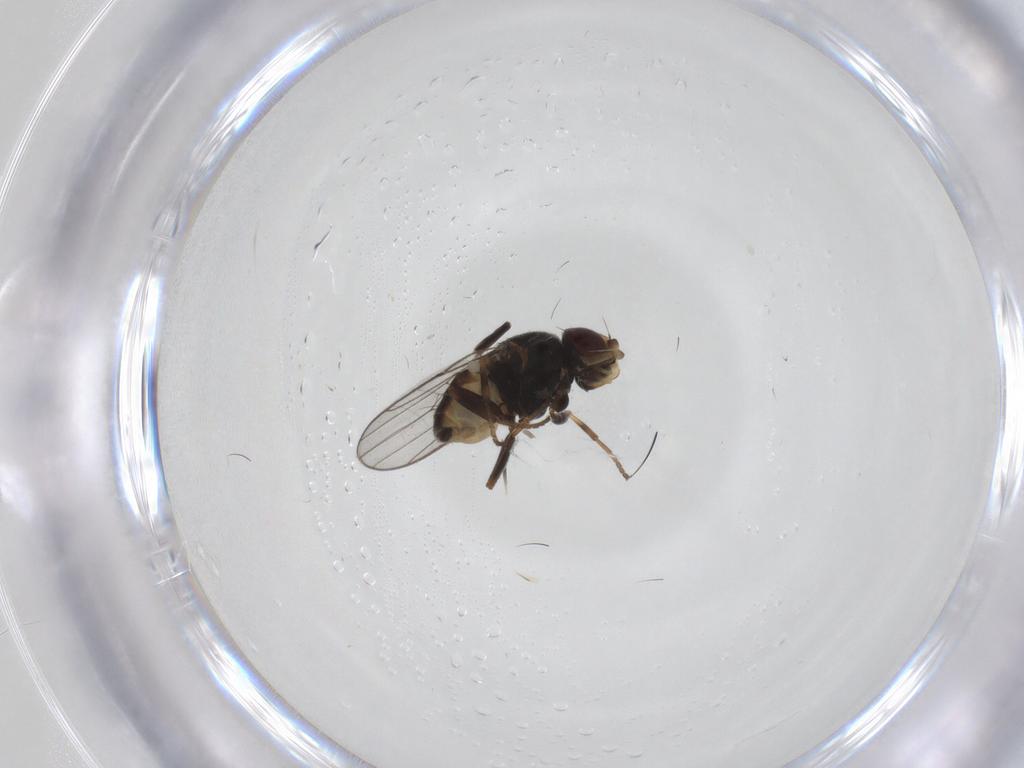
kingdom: Animalia
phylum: Arthropoda
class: Insecta
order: Diptera
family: Chloropidae
